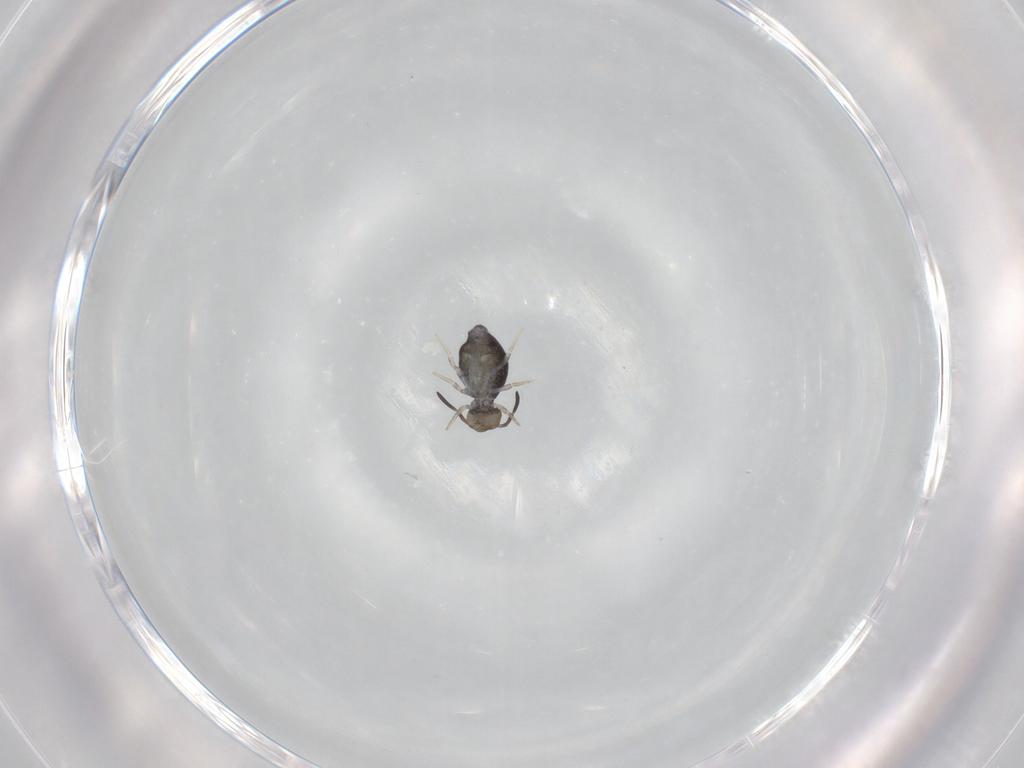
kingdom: Animalia
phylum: Arthropoda
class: Collembola
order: Symphypleona
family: Katiannidae
